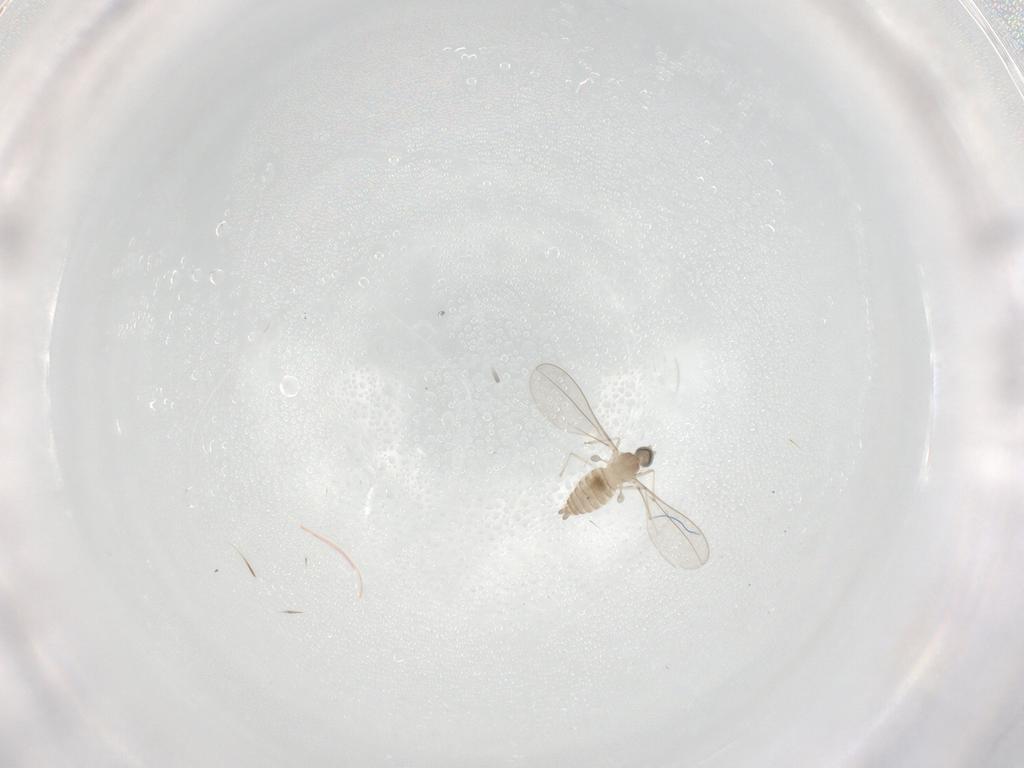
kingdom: Animalia
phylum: Arthropoda
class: Insecta
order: Diptera
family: Cecidomyiidae
